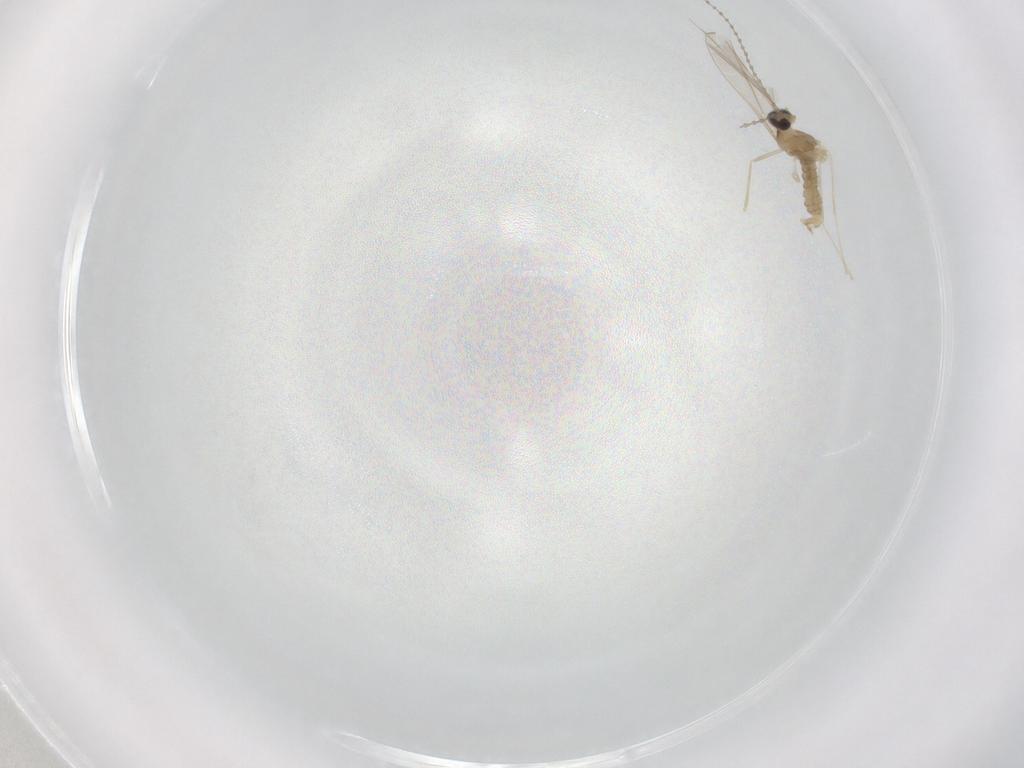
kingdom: Animalia
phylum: Arthropoda
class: Insecta
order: Diptera
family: Cecidomyiidae
